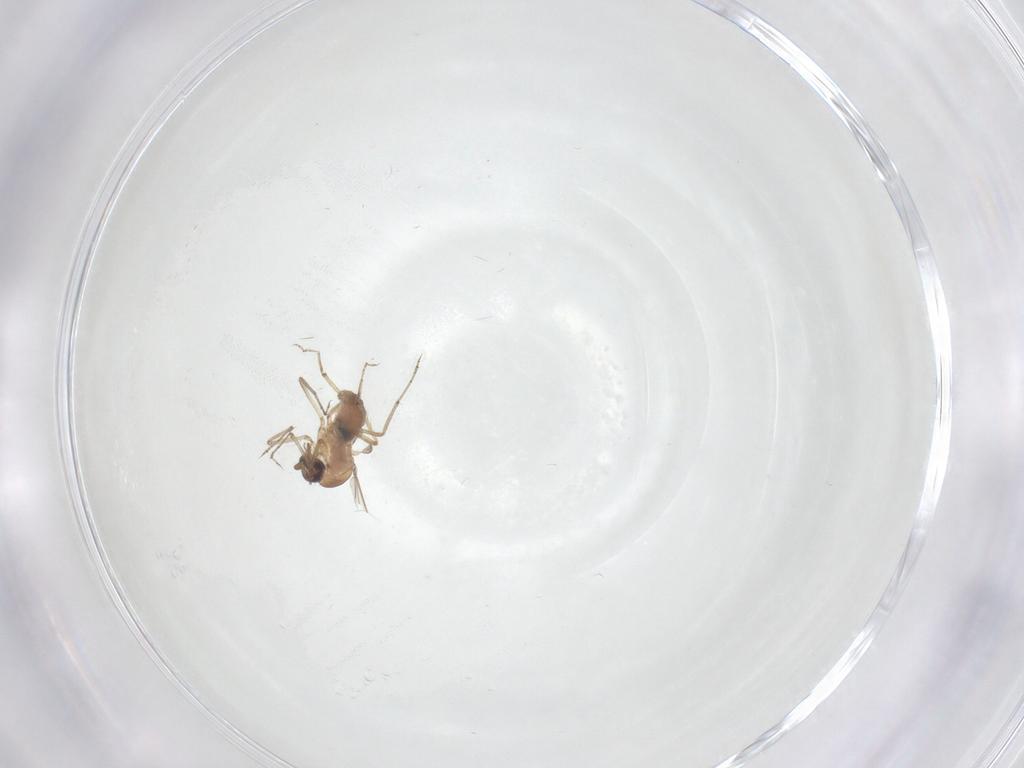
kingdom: Animalia
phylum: Arthropoda
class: Insecta
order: Diptera
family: Ceratopogonidae
